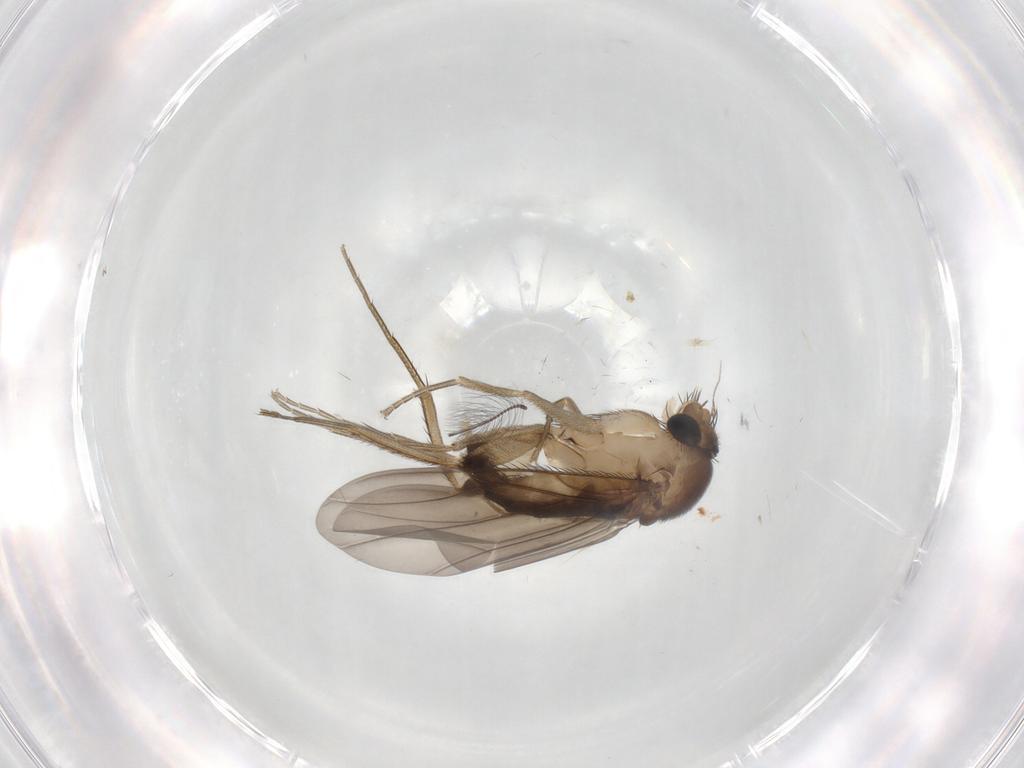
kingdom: Animalia
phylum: Arthropoda
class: Insecta
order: Diptera
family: Phoridae
